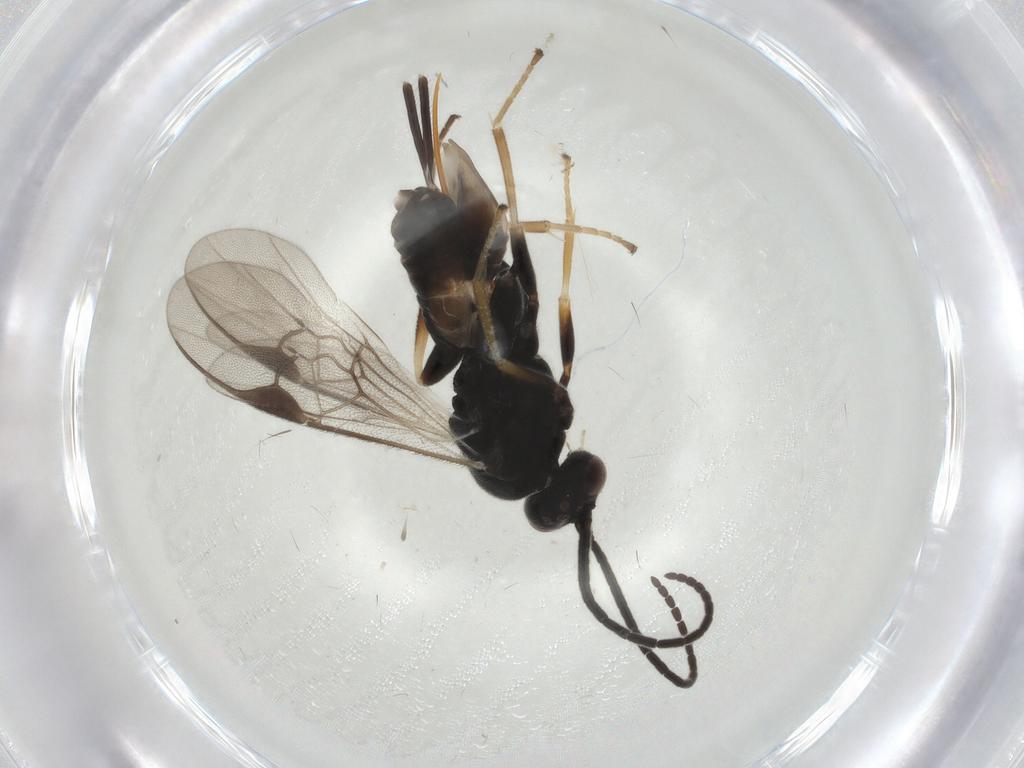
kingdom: Animalia
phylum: Arthropoda
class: Insecta
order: Hymenoptera
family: Braconidae
